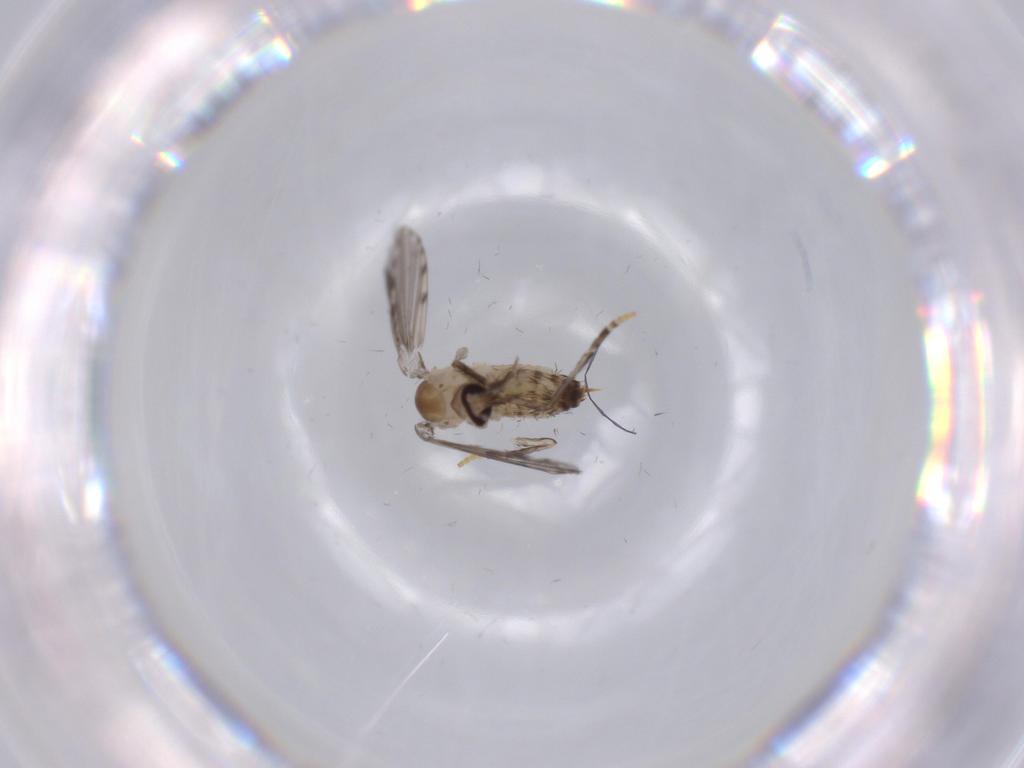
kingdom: Animalia
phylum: Arthropoda
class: Insecta
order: Diptera
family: Psychodidae
